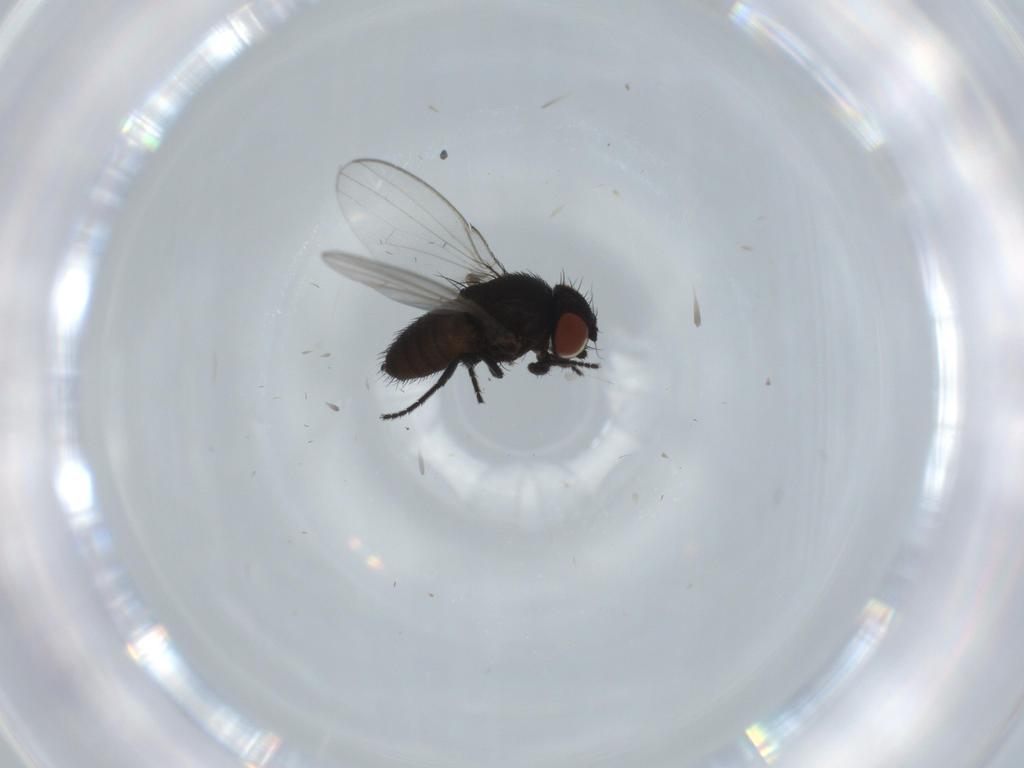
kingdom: Animalia
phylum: Arthropoda
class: Insecta
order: Diptera
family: Milichiidae
